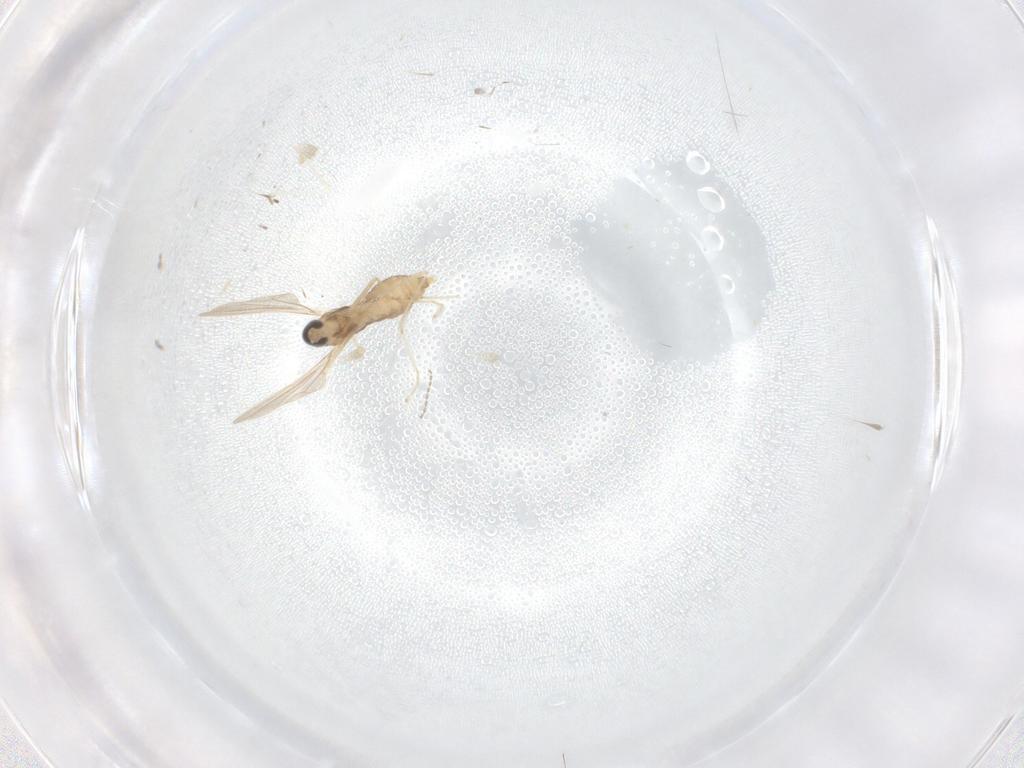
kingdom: Animalia
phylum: Arthropoda
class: Insecta
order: Diptera
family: Cecidomyiidae
